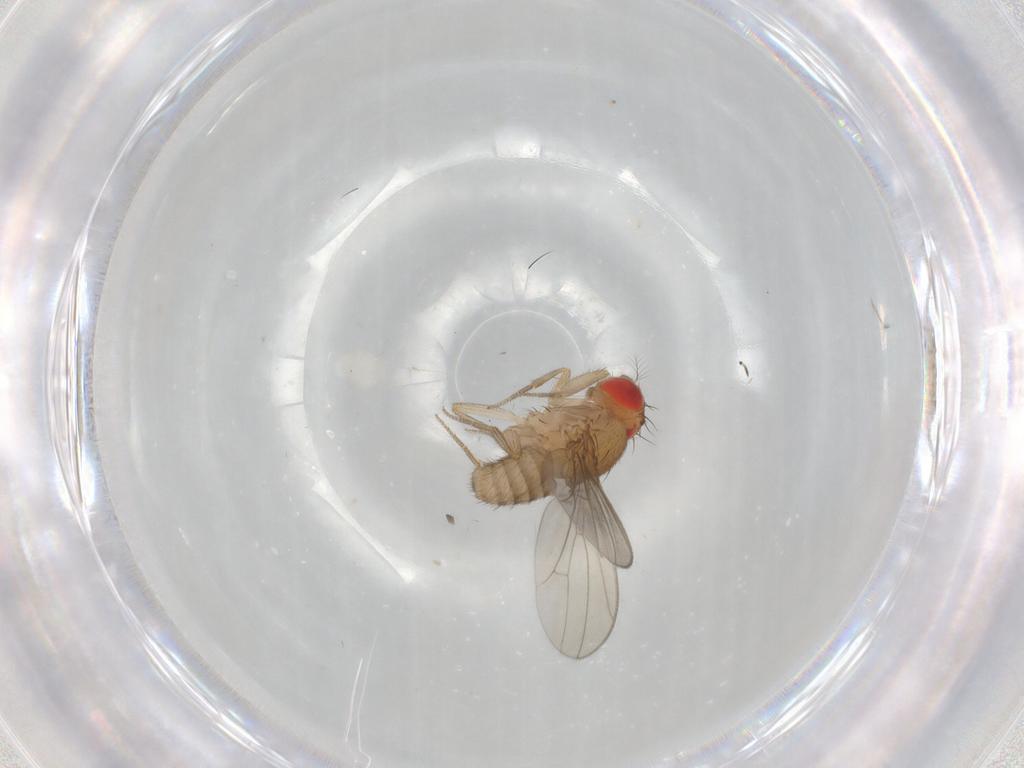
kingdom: Animalia
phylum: Arthropoda
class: Insecta
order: Diptera
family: Drosophilidae
